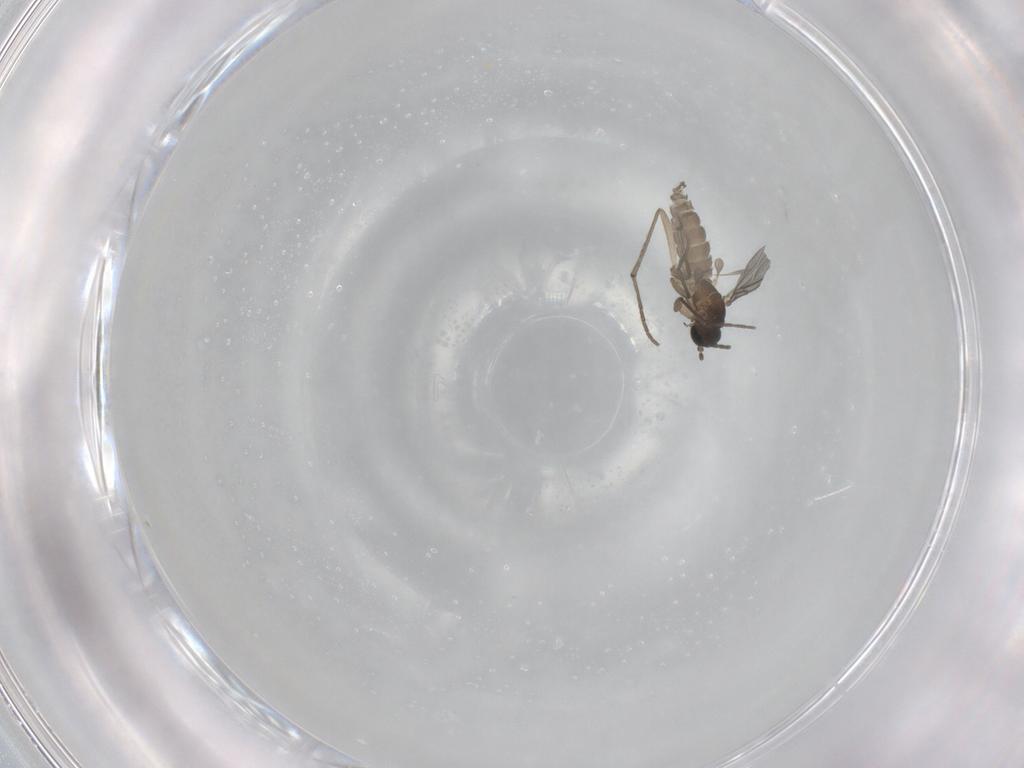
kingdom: Animalia
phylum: Arthropoda
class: Insecta
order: Diptera
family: Sciaridae
